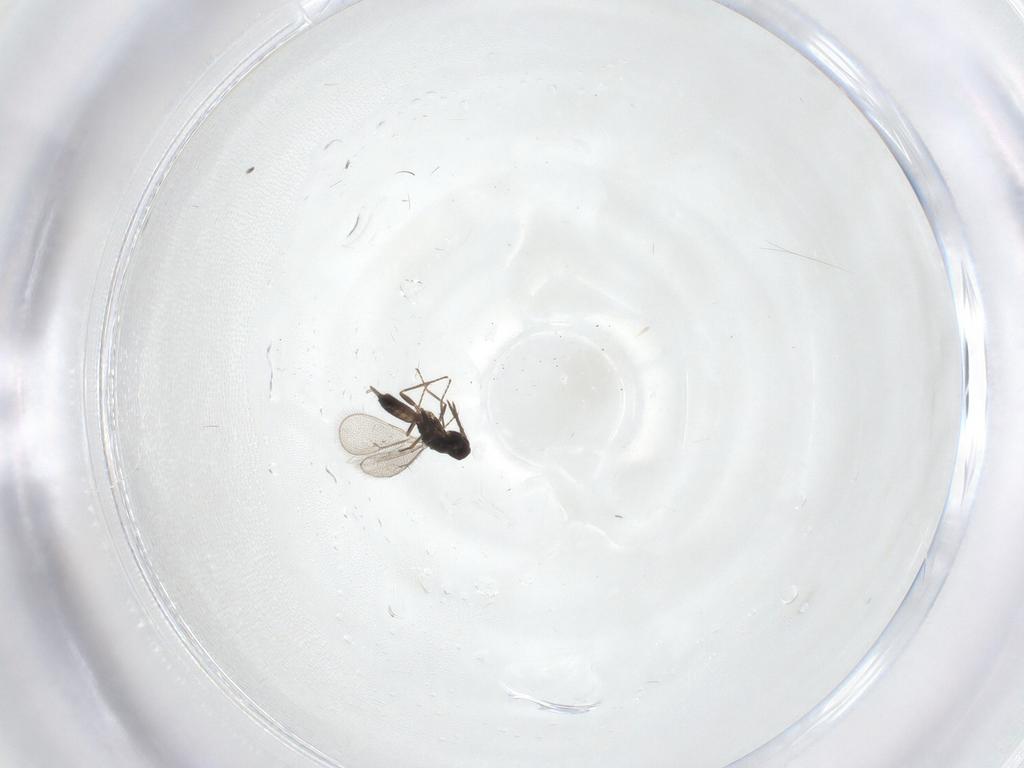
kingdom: Animalia
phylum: Arthropoda
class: Insecta
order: Hymenoptera
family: Eulophidae
